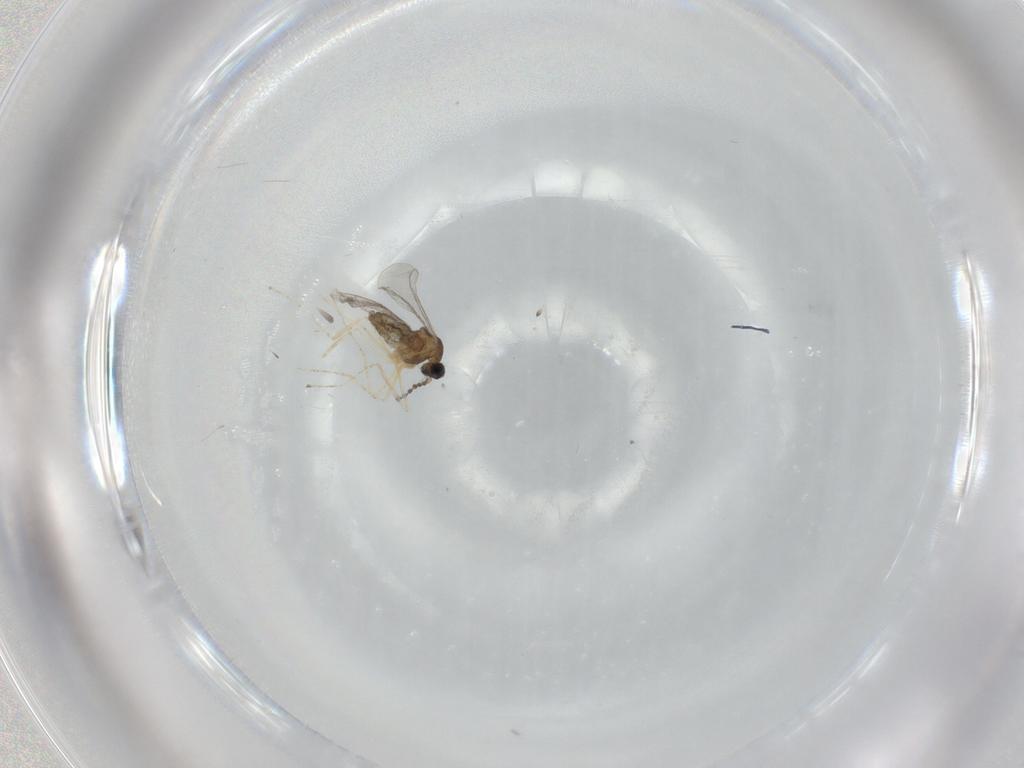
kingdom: Animalia
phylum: Arthropoda
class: Insecta
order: Diptera
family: Cecidomyiidae
